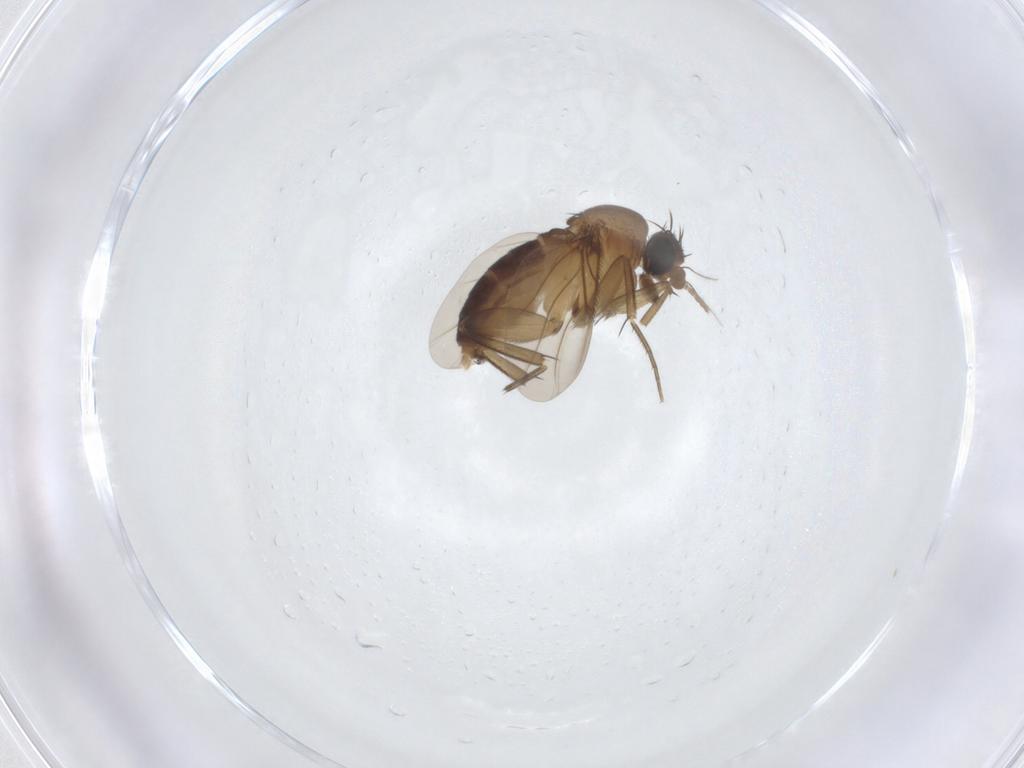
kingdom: Animalia
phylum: Arthropoda
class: Insecta
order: Diptera
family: Phoridae
